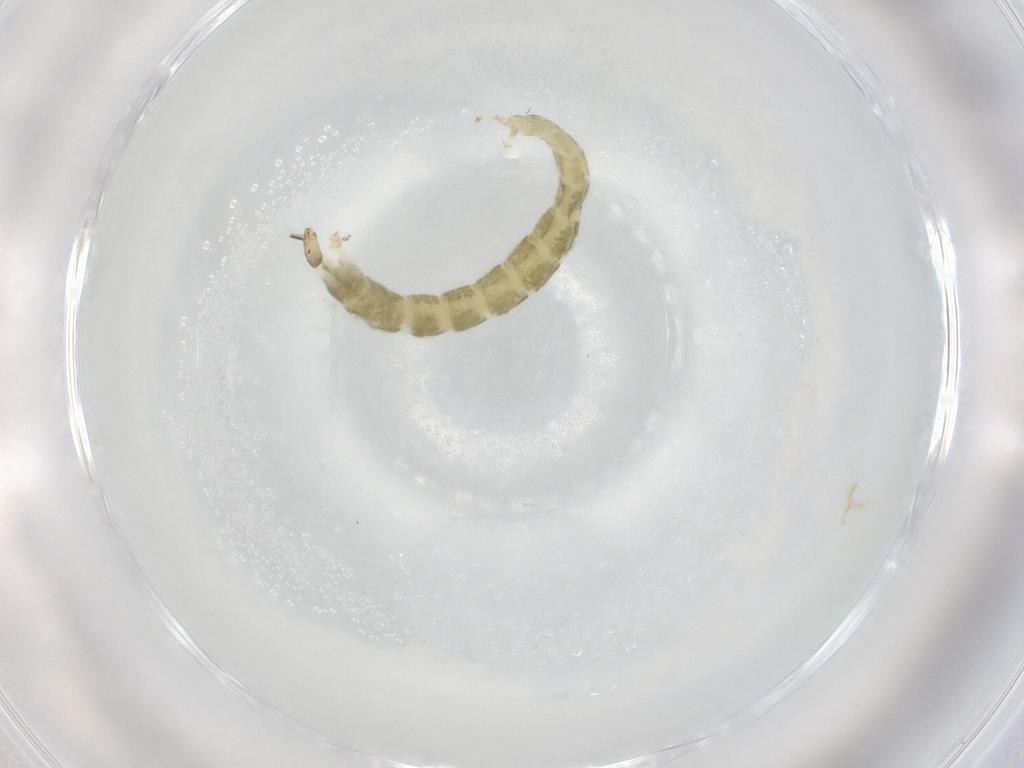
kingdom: Animalia
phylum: Arthropoda
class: Insecta
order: Diptera
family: Chironomidae
